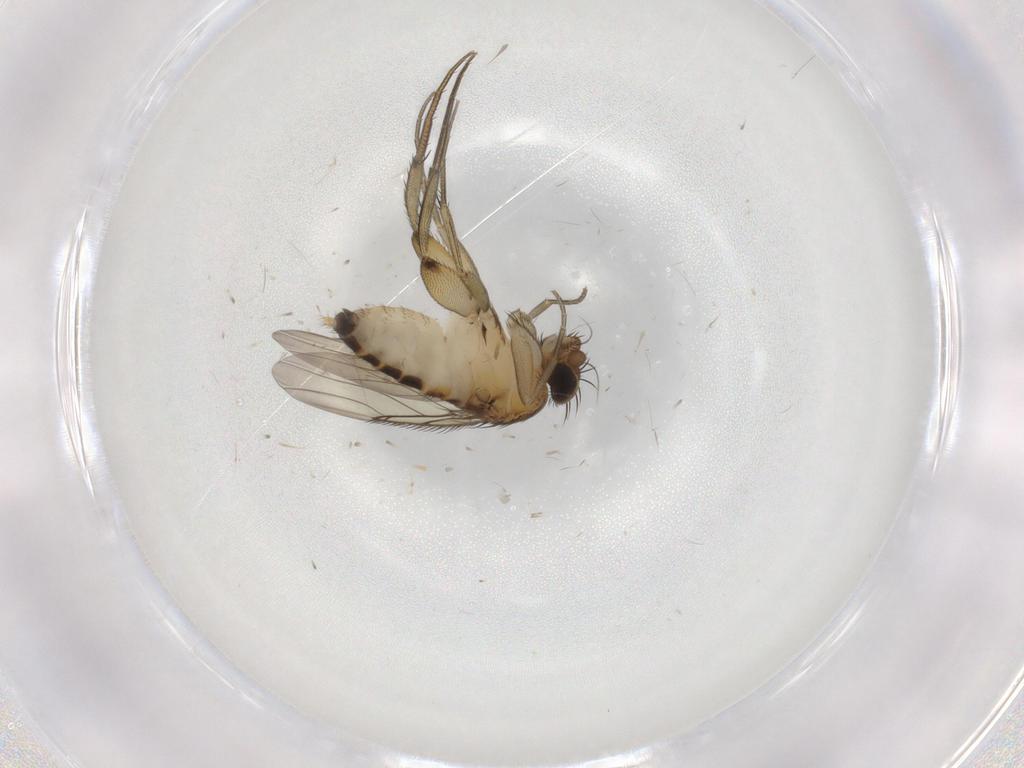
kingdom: Animalia
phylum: Arthropoda
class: Insecta
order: Diptera
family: Phoridae
